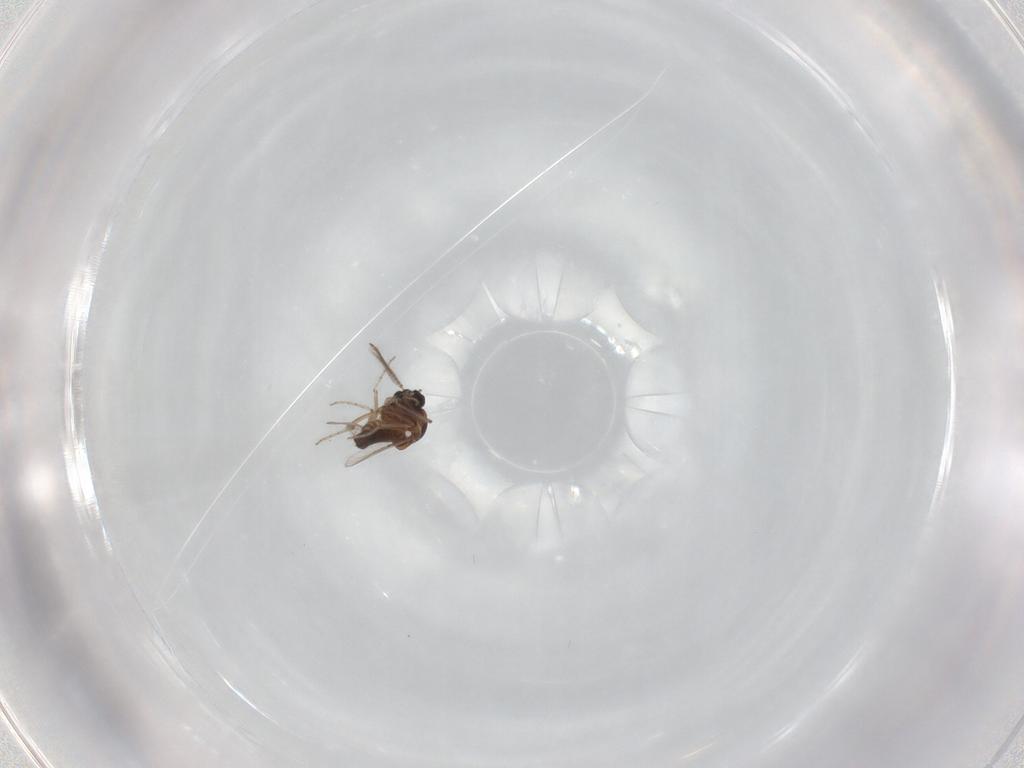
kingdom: Animalia
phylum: Arthropoda
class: Insecta
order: Diptera
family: Ceratopogonidae
